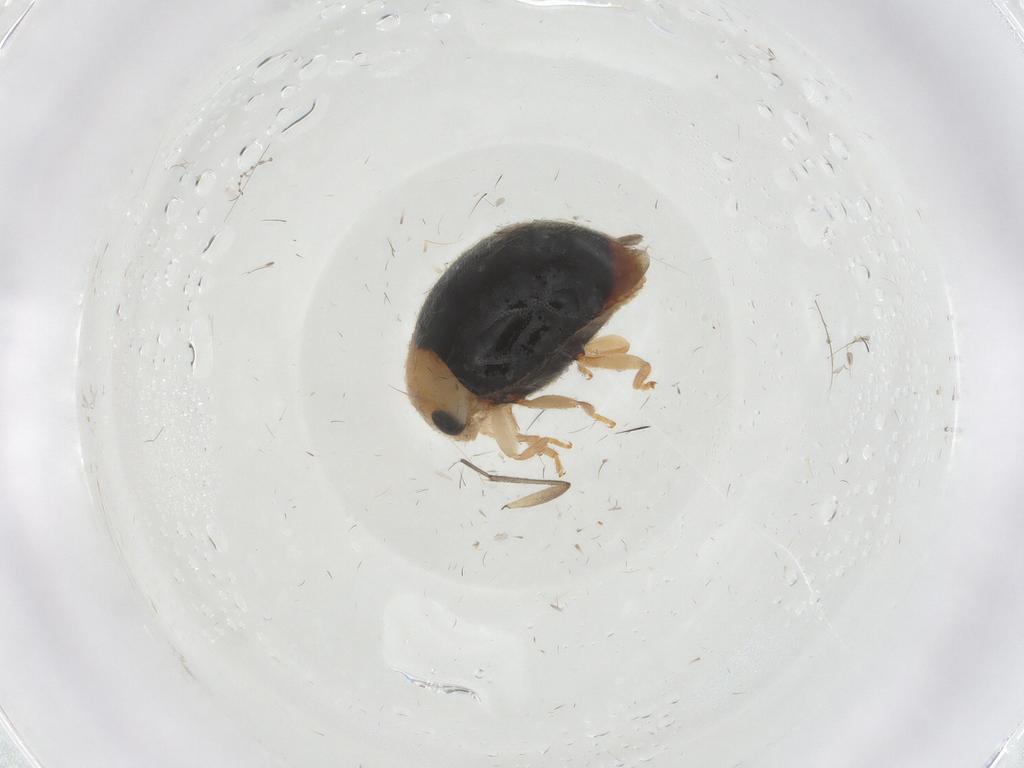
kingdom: Animalia
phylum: Arthropoda
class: Insecta
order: Coleoptera
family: Coccinellidae
